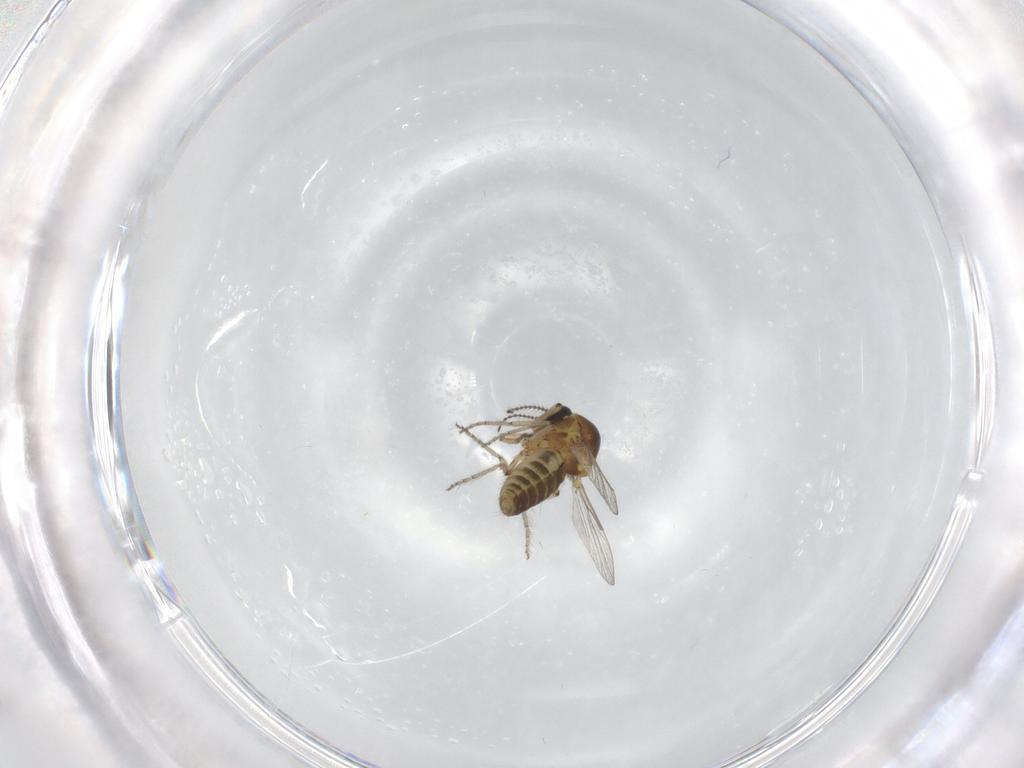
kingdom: Animalia
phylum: Arthropoda
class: Insecta
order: Diptera
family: Ceratopogonidae
